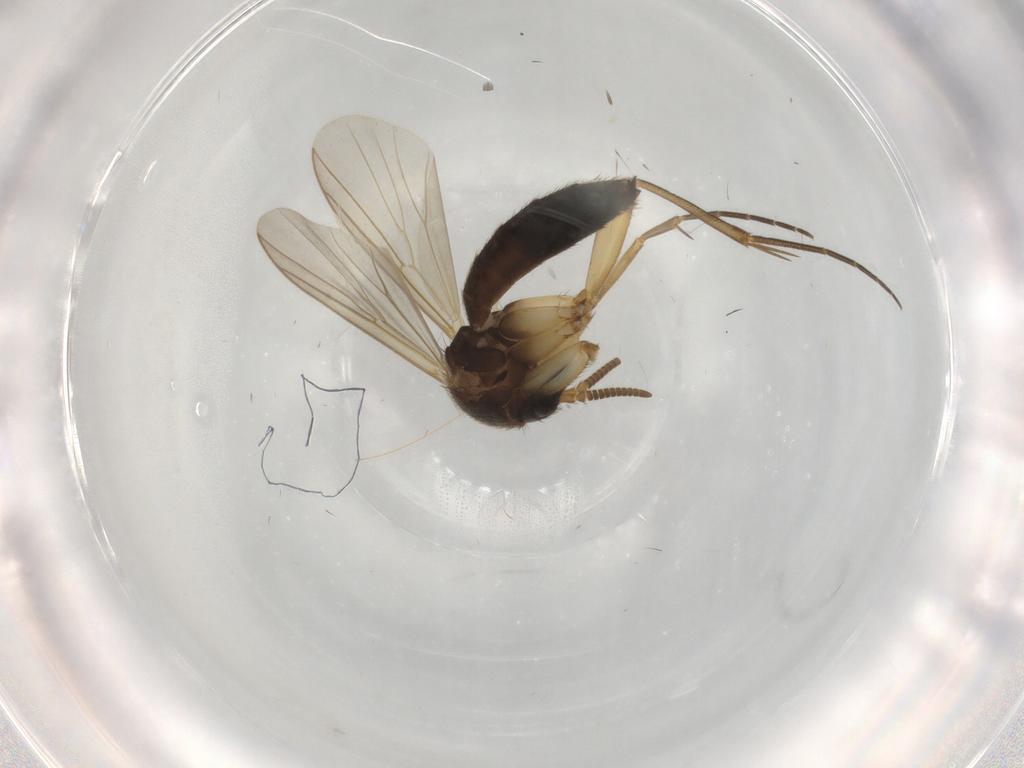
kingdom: Animalia
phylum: Arthropoda
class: Insecta
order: Diptera
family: Mycetophilidae
